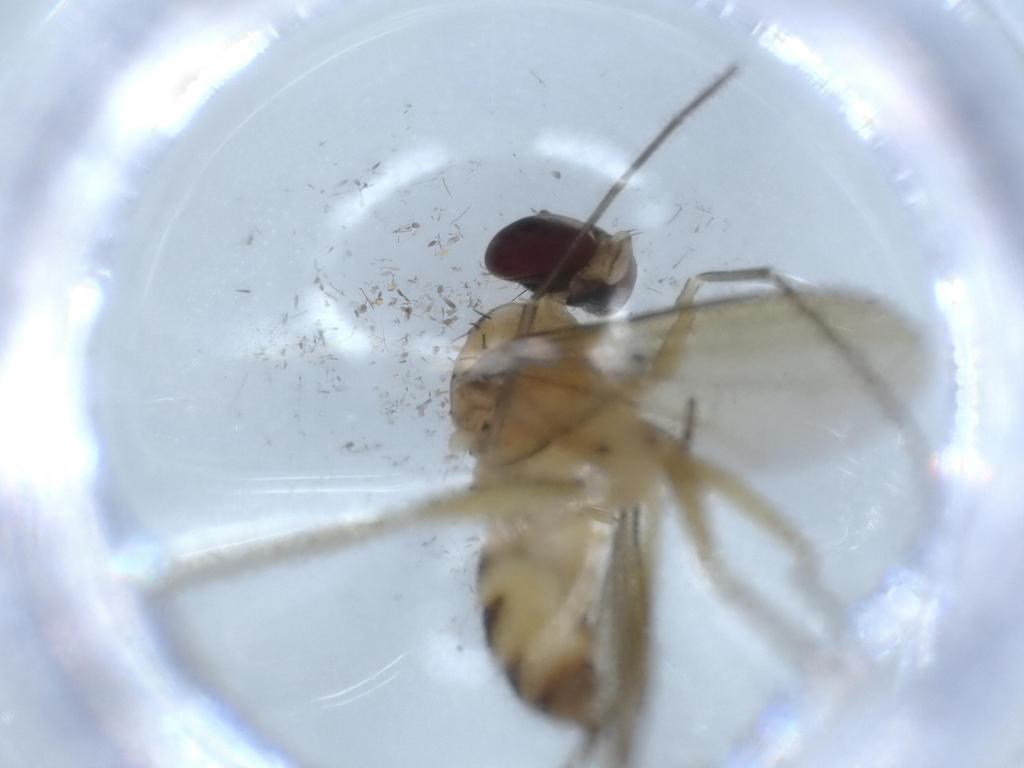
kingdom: Animalia
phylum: Arthropoda
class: Insecta
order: Diptera
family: Dolichopodidae
